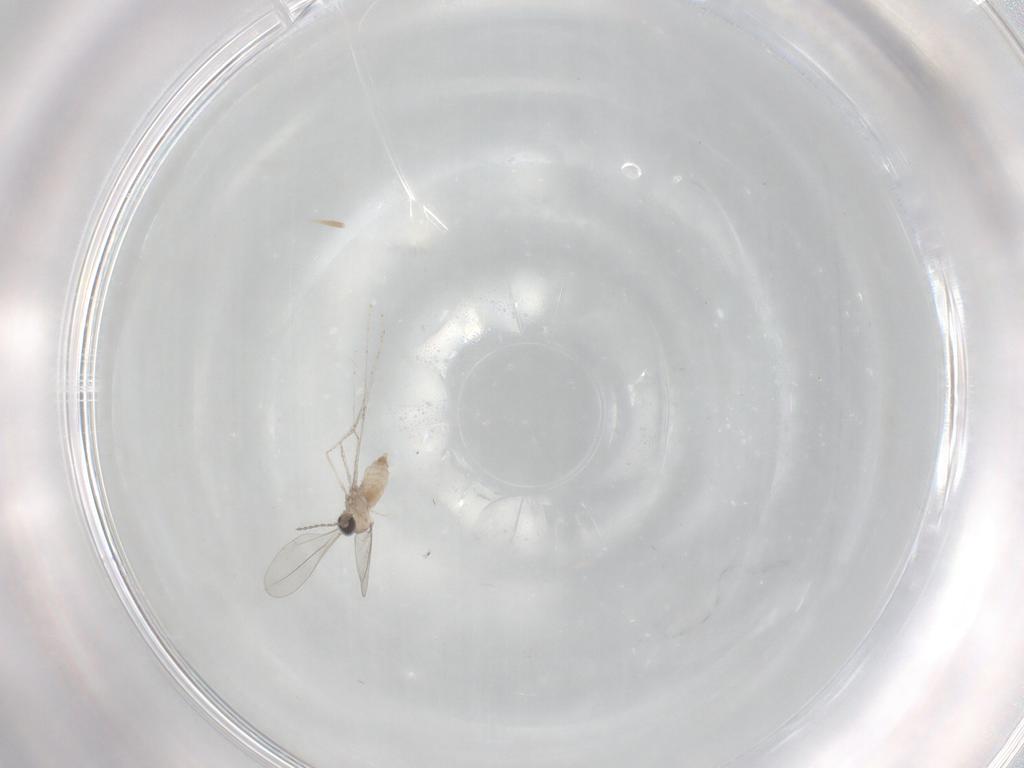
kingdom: Animalia
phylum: Arthropoda
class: Insecta
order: Diptera
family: Cecidomyiidae
